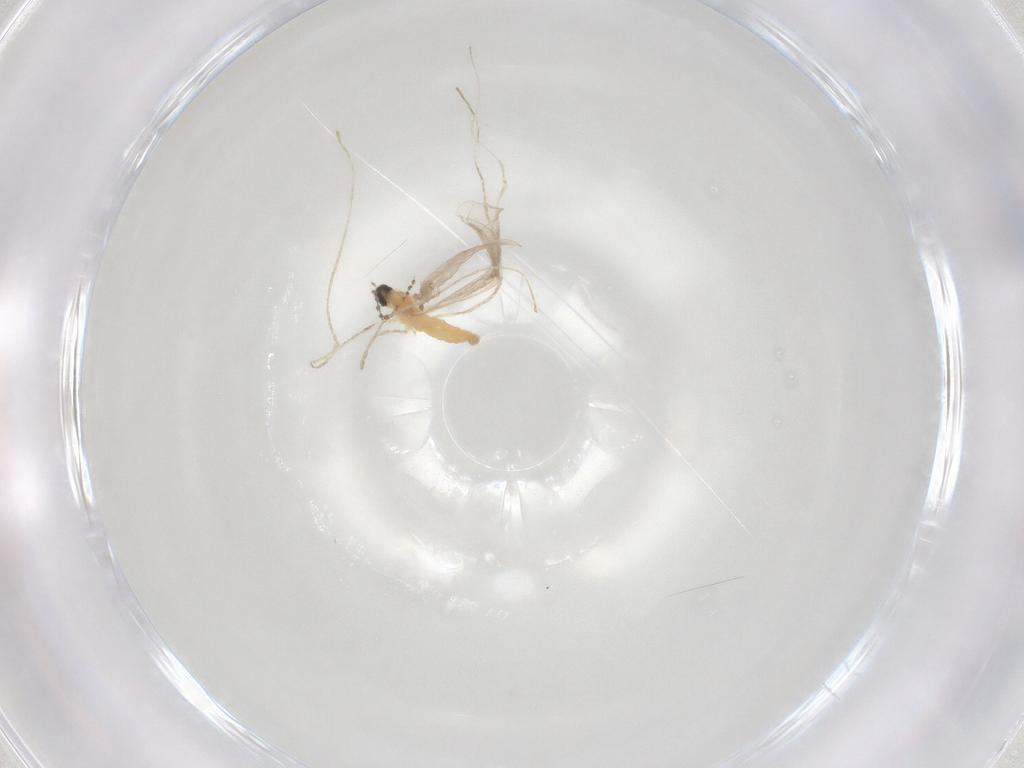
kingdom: Animalia
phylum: Arthropoda
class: Insecta
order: Diptera
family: Cecidomyiidae
